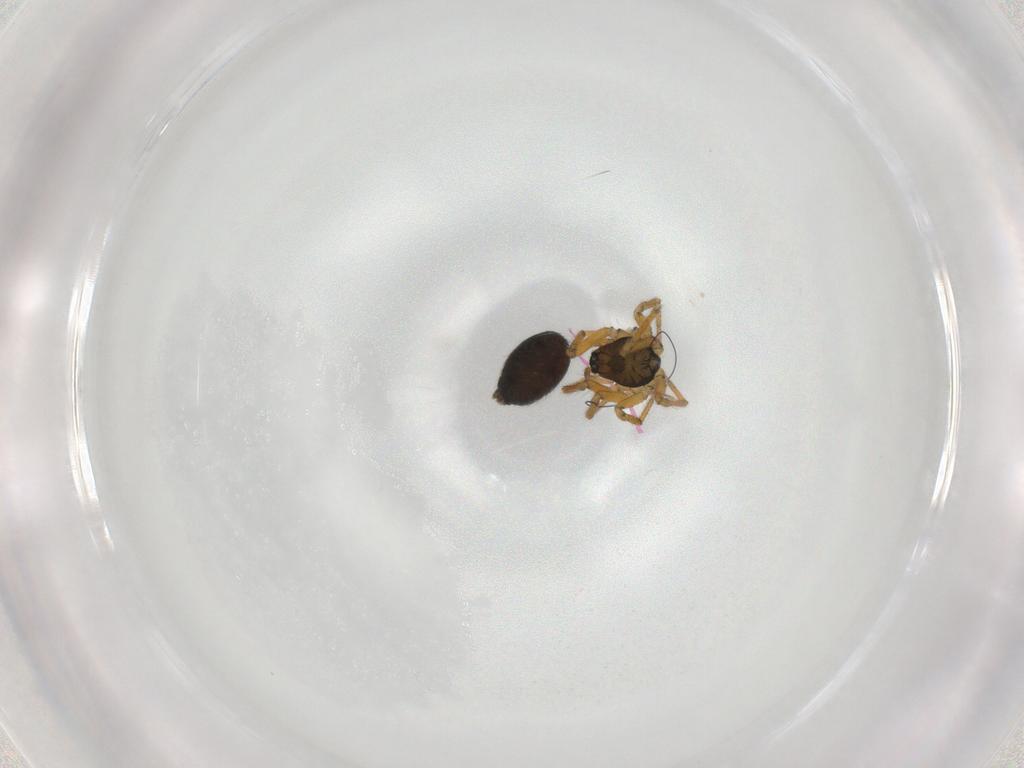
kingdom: Animalia
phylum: Arthropoda
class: Arachnida
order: Araneae
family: Linyphiidae
